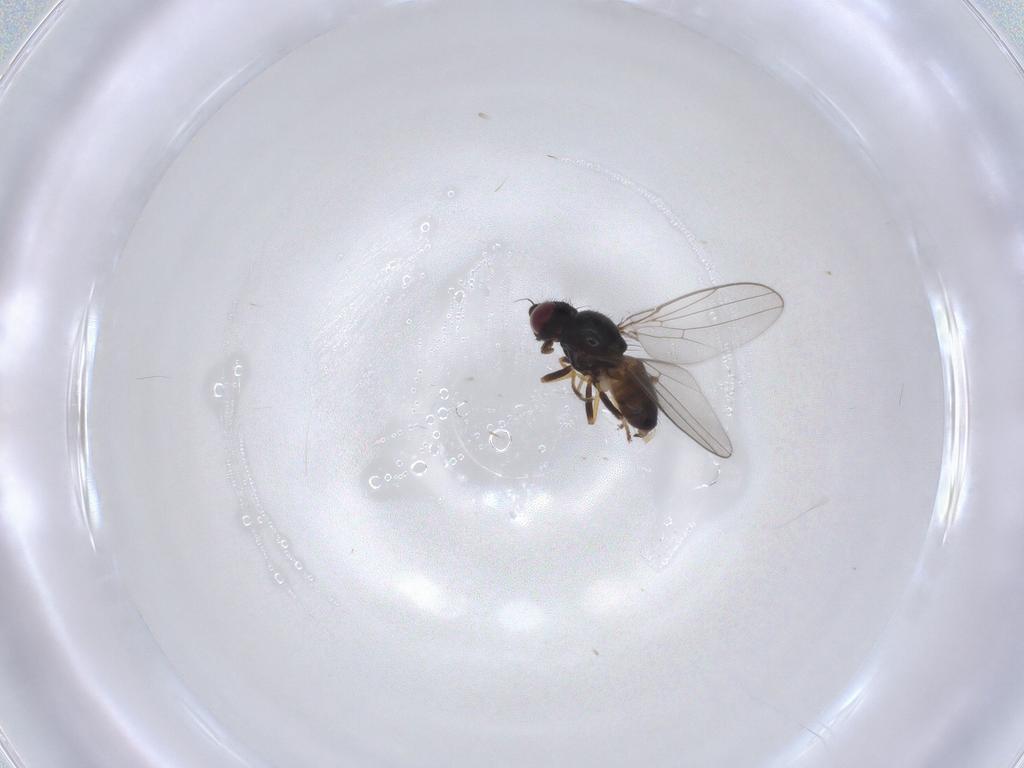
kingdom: Animalia
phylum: Arthropoda
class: Insecta
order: Diptera
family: Chloropidae
